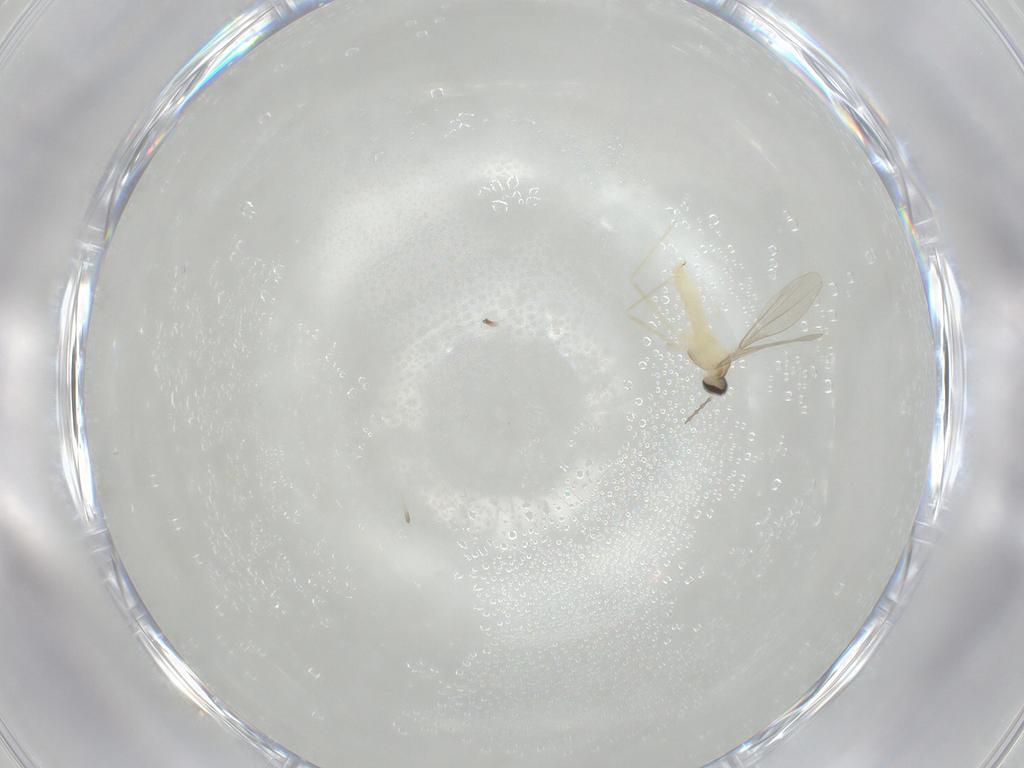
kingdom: Animalia
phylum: Arthropoda
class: Insecta
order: Diptera
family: Cecidomyiidae
